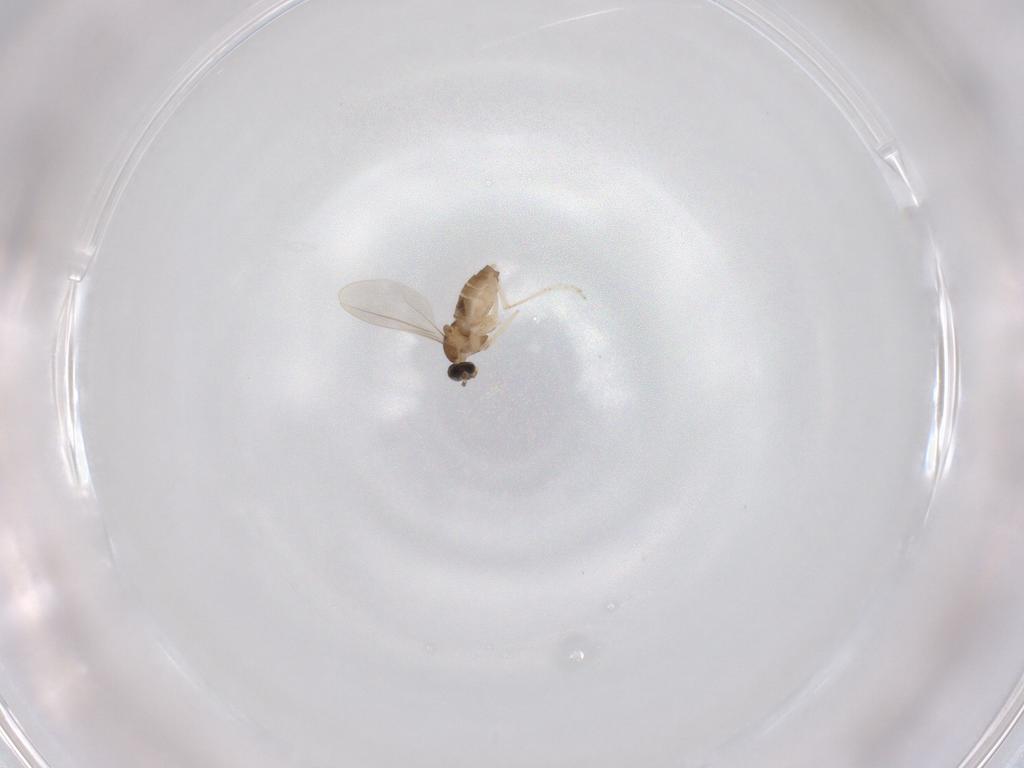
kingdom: Animalia
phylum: Arthropoda
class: Insecta
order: Diptera
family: Cecidomyiidae
